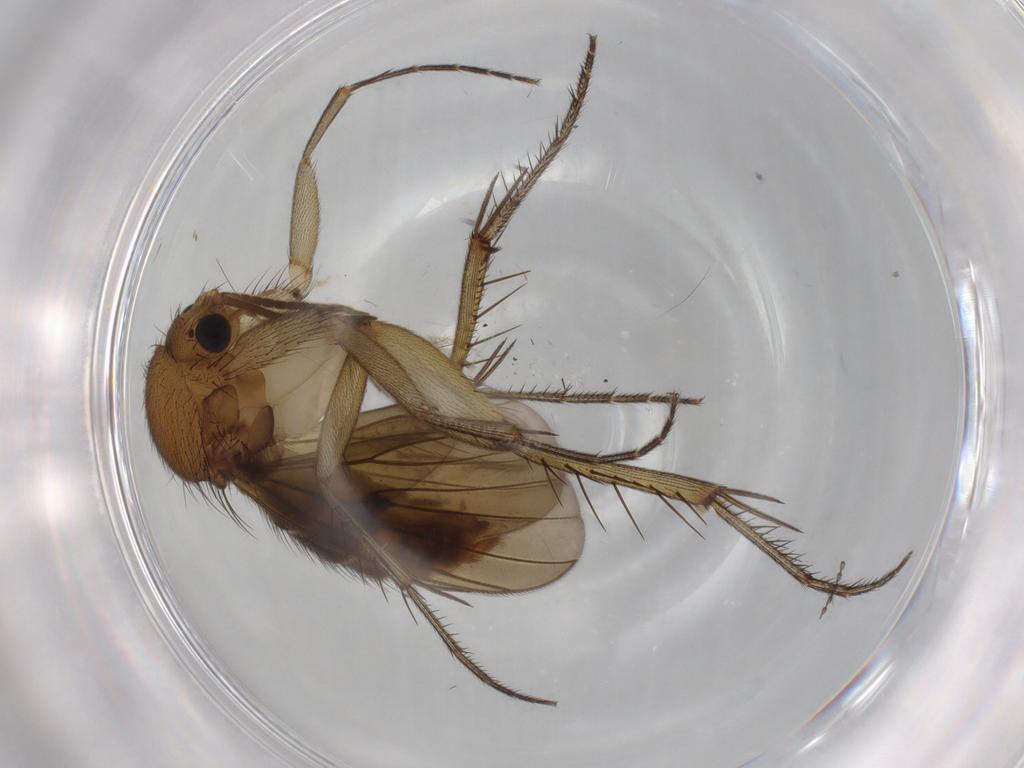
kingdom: Animalia
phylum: Arthropoda
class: Insecta
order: Diptera
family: Mycetophilidae
